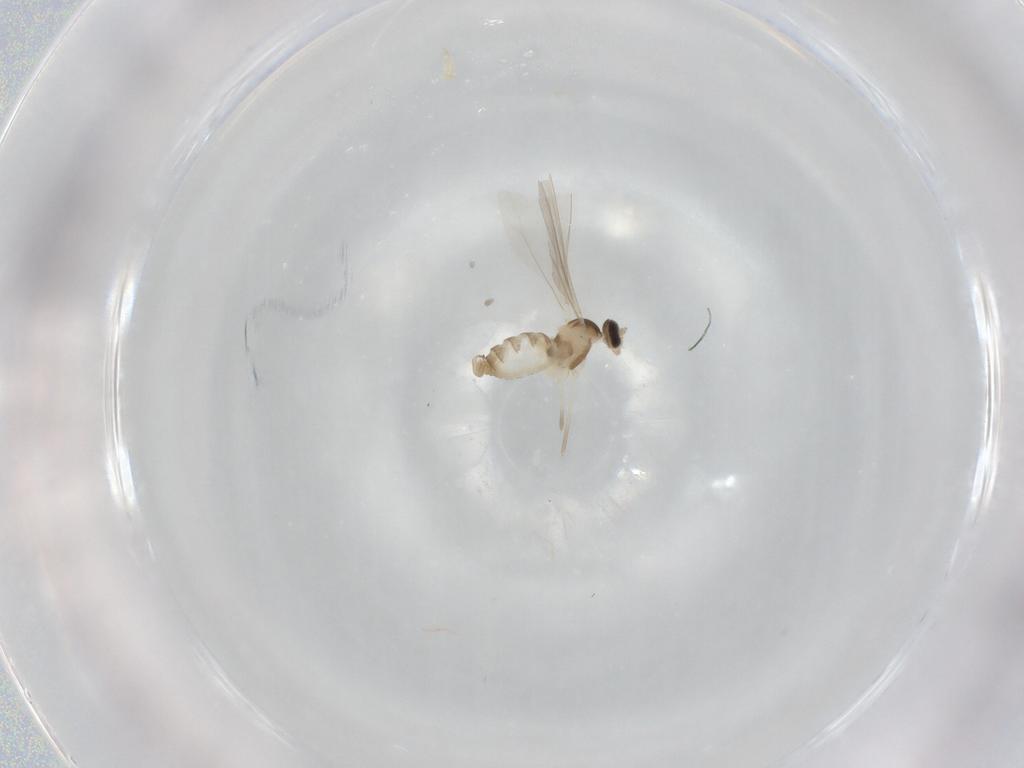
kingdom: Animalia
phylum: Arthropoda
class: Insecta
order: Diptera
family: Cecidomyiidae
